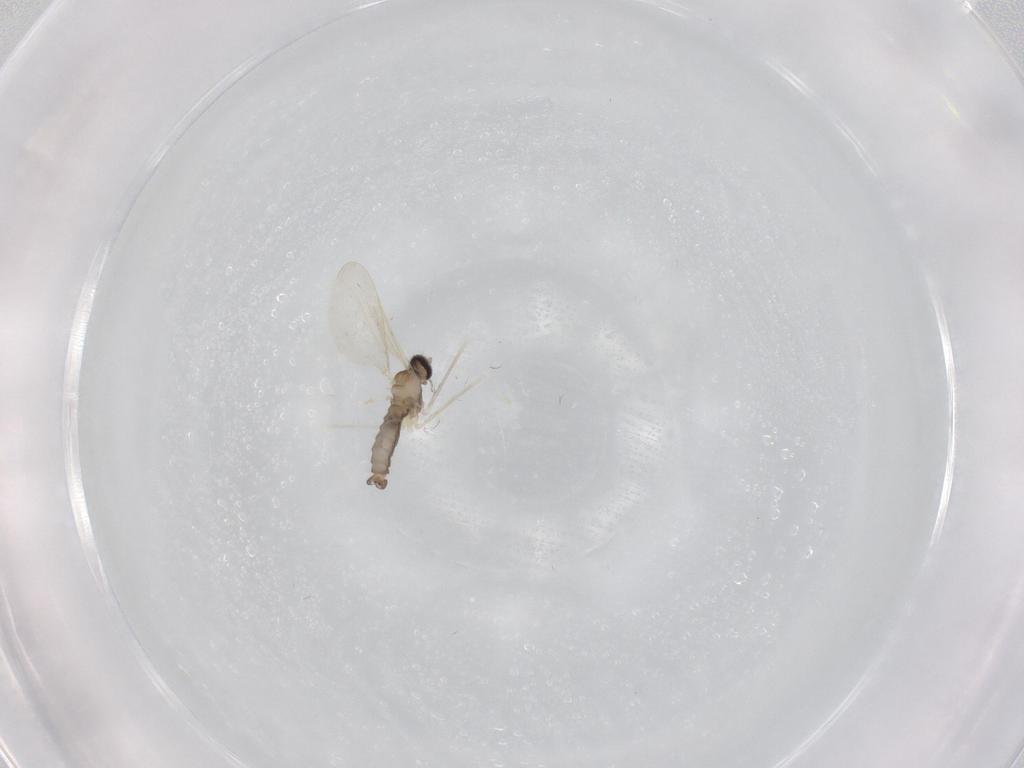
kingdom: Animalia
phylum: Arthropoda
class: Insecta
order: Diptera
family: Cecidomyiidae
